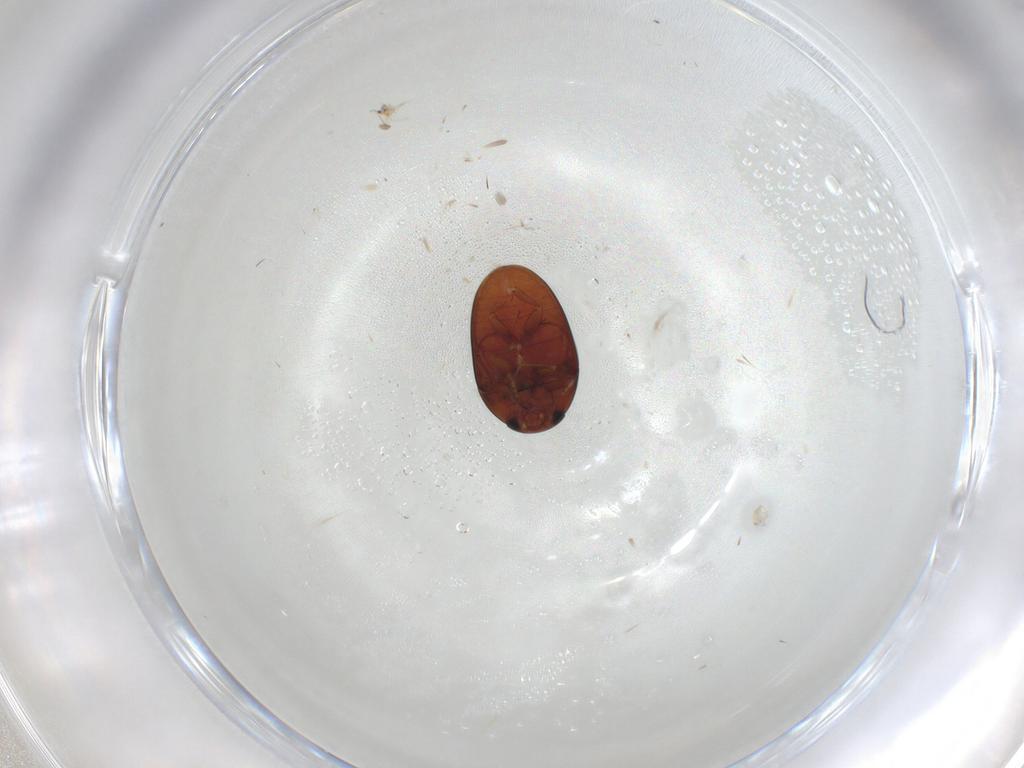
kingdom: Animalia
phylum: Arthropoda
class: Insecta
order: Coleoptera
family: Phalacridae
